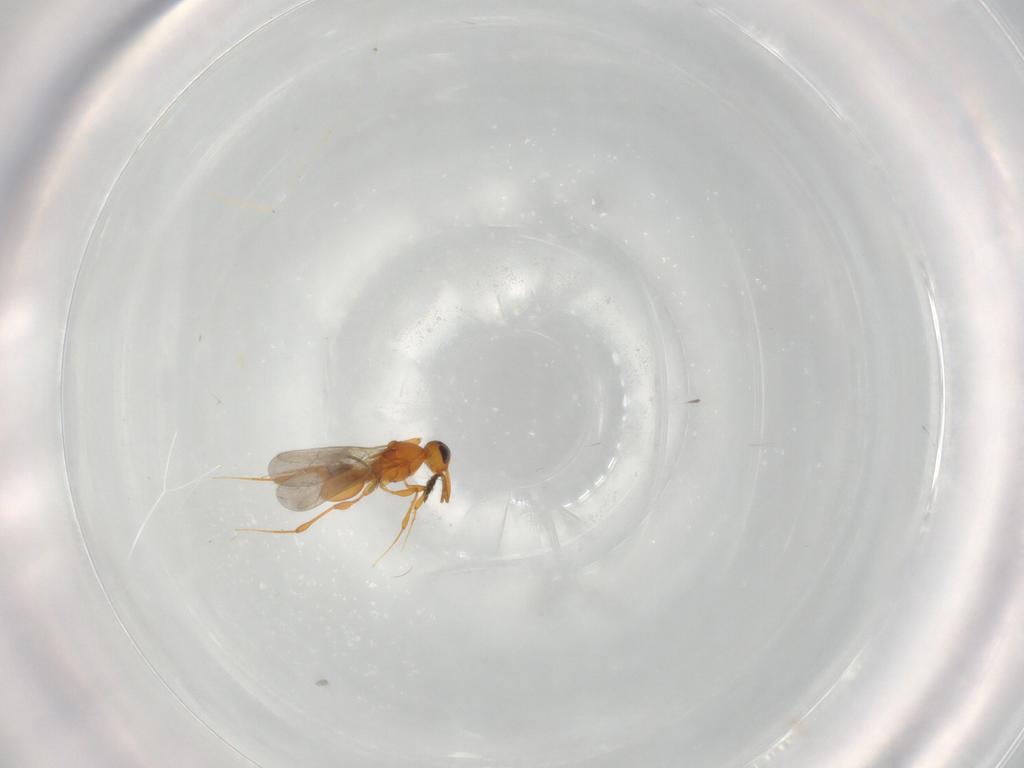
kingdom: Animalia
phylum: Arthropoda
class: Insecta
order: Hymenoptera
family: Platygastridae
